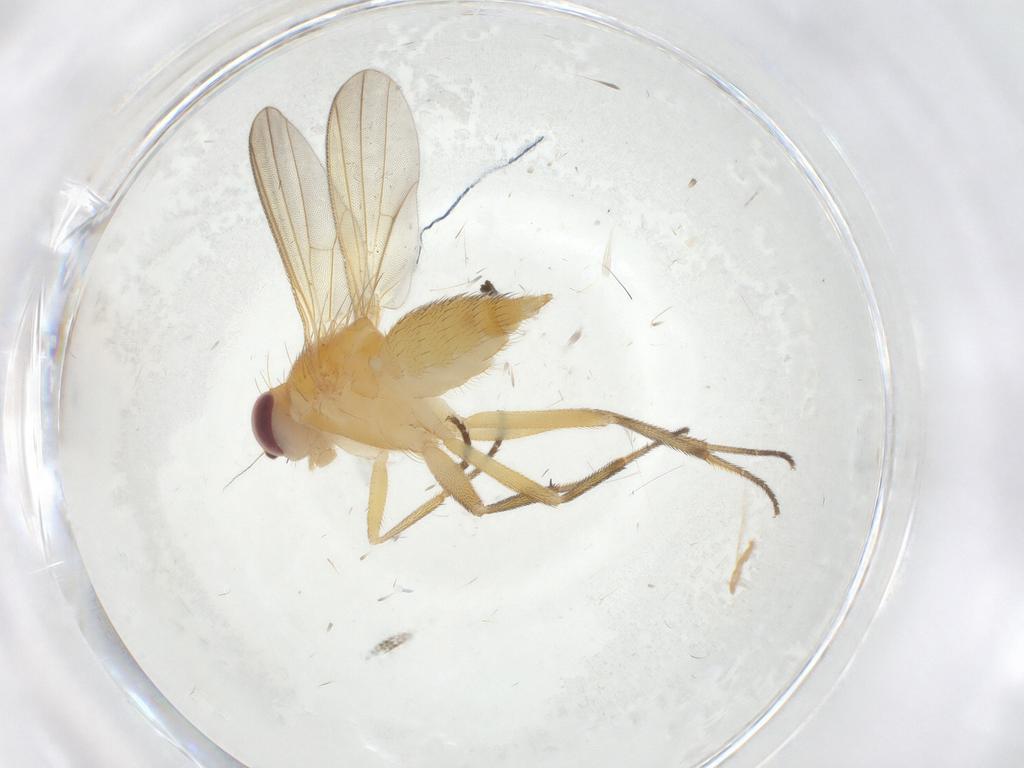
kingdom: Animalia
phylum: Arthropoda
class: Insecta
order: Diptera
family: Clusiidae
